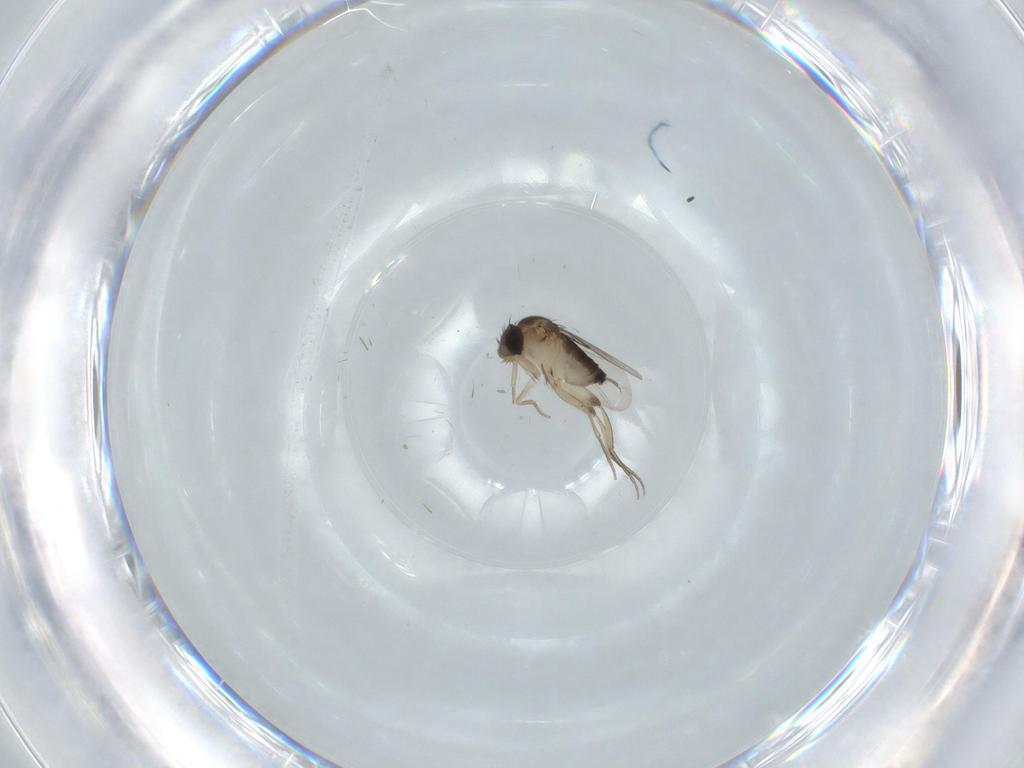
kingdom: Animalia
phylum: Arthropoda
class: Insecta
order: Diptera
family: Phoridae
